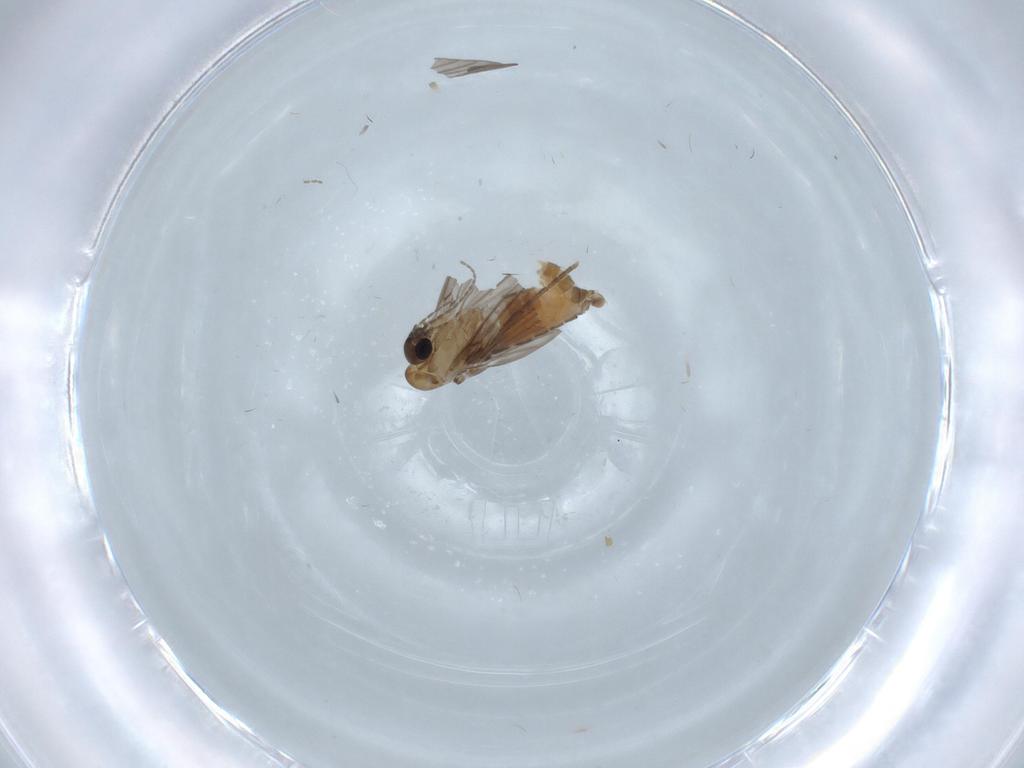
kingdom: Animalia
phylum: Arthropoda
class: Insecta
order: Diptera
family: Limoniidae
